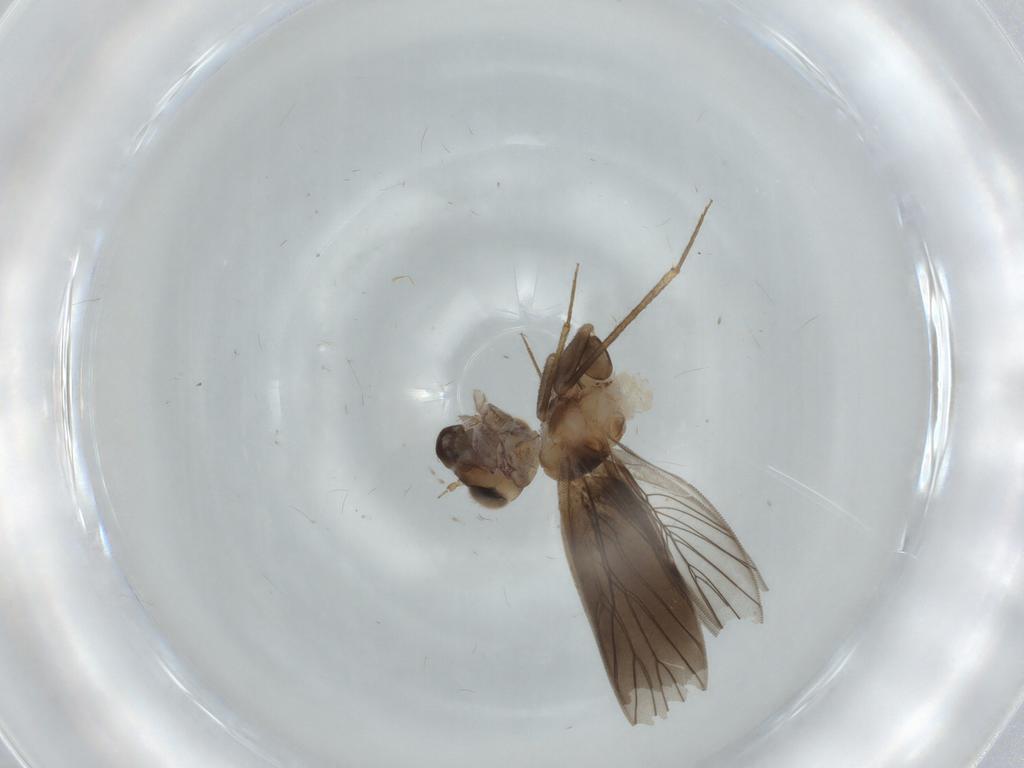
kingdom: Animalia
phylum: Arthropoda
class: Insecta
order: Psocodea
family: Lepidopsocidae
